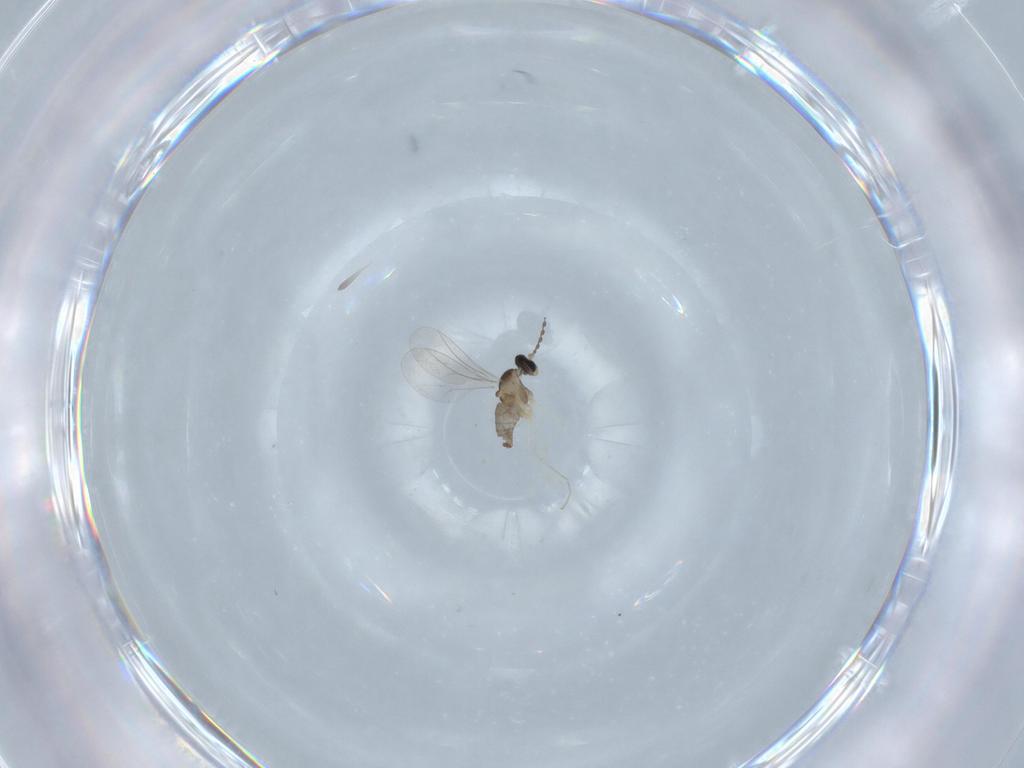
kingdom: Animalia
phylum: Arthropoda
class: Insecta
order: Diptera
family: Cecidomyiidae
